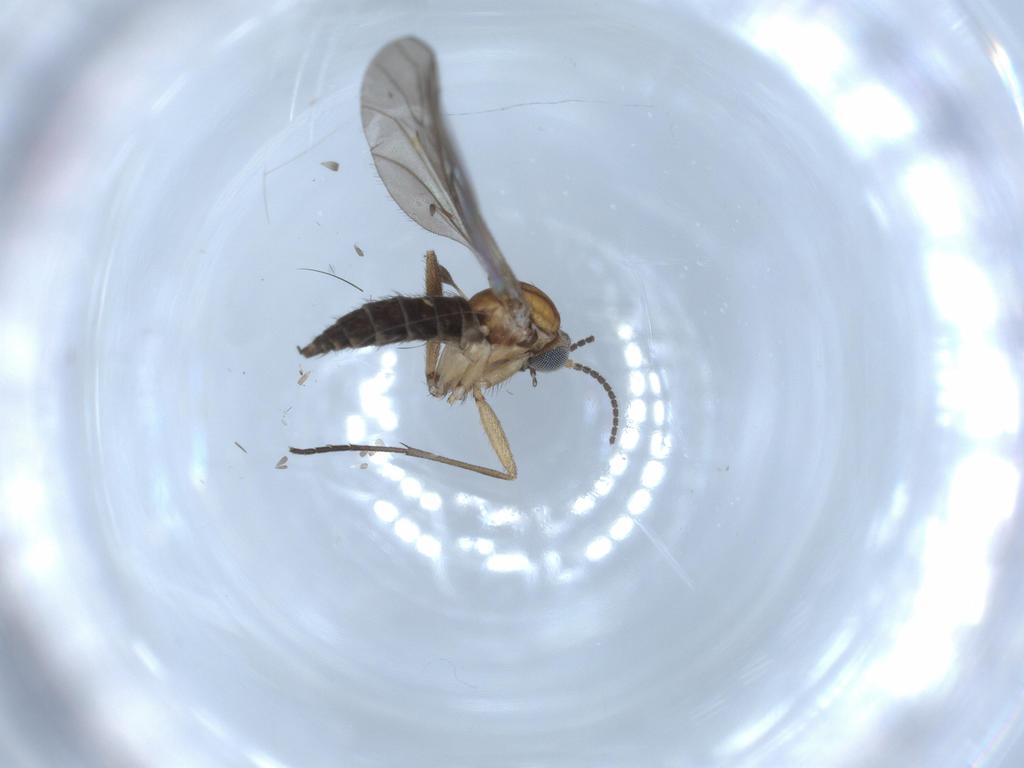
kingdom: Animalia
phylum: Arthropoda
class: Insecta
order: Diptera
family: Sciaridae
